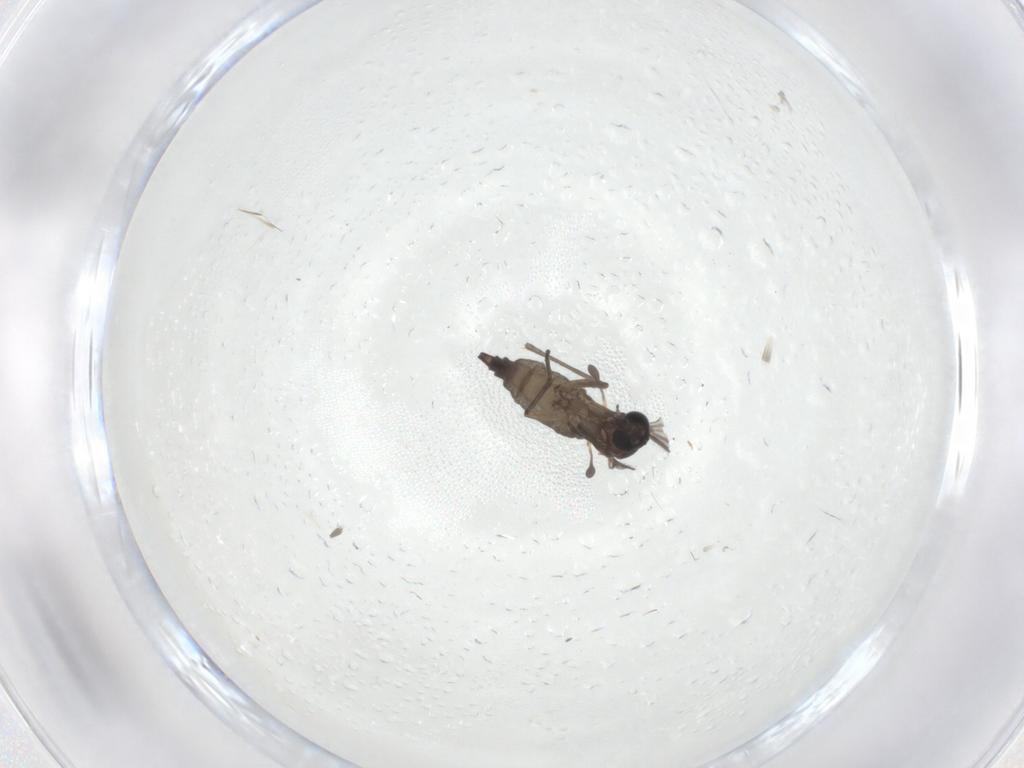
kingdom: Animalia
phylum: Arthropoda
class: Insecta
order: Diptera
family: Sciaridae
